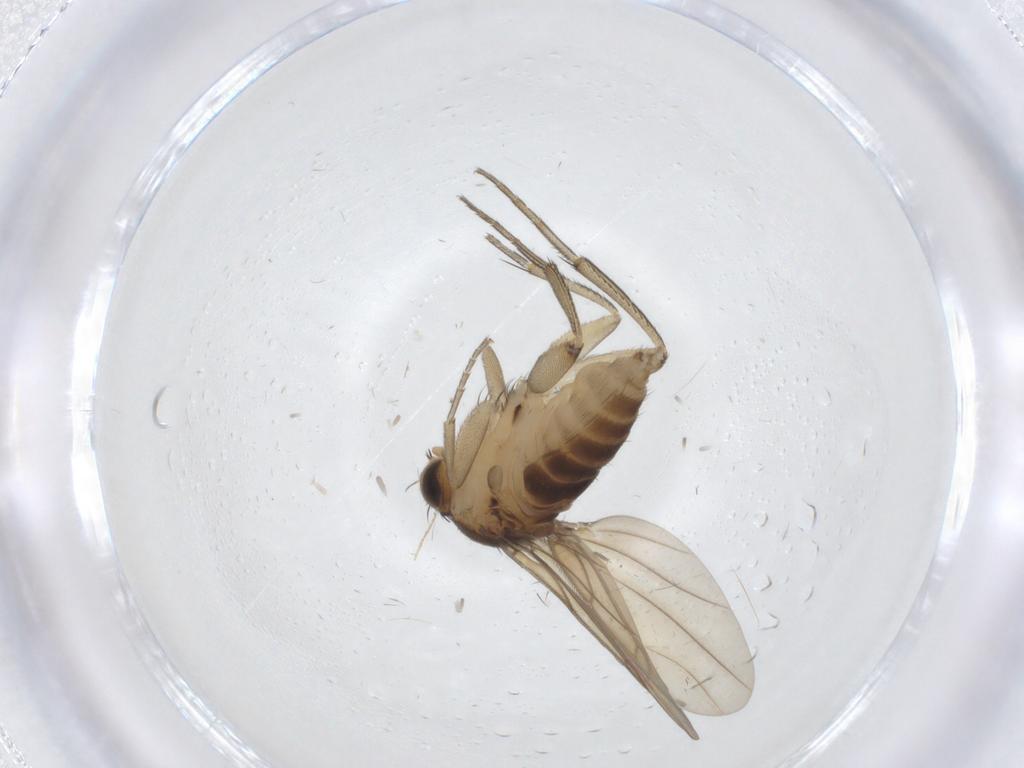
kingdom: Animalia
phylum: Arthropoda
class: Insecta
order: Diptera
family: Phoridae
